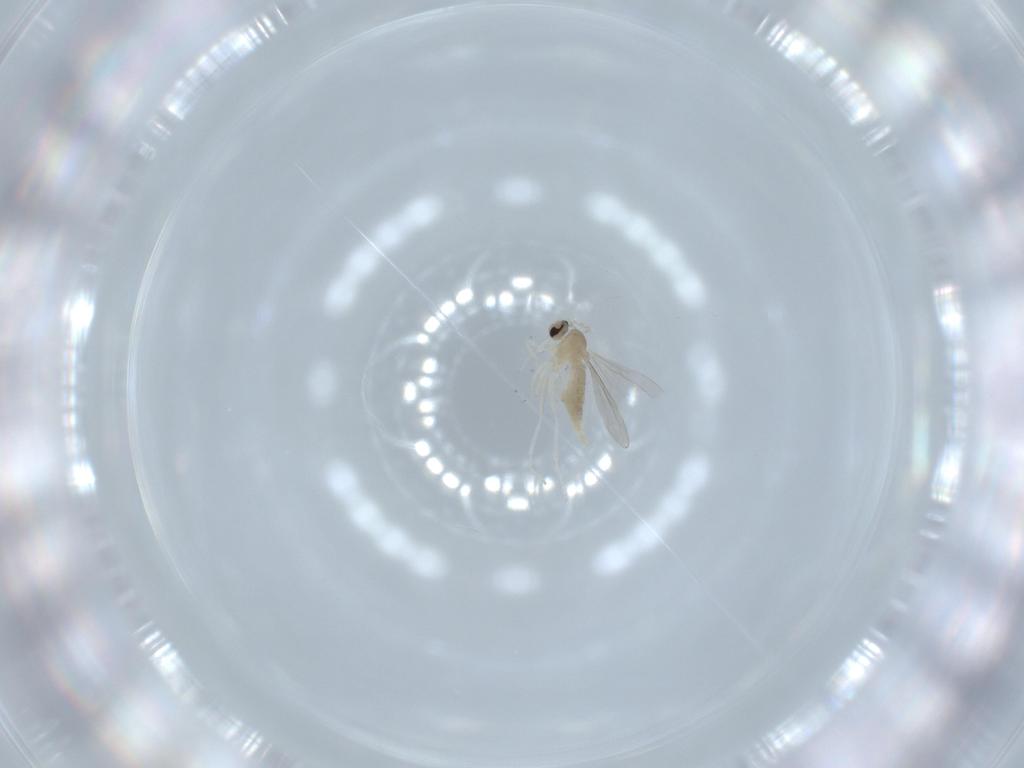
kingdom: Animalia
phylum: Arthropoda
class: Insecta
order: Diptera
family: Cecidomyiidae
